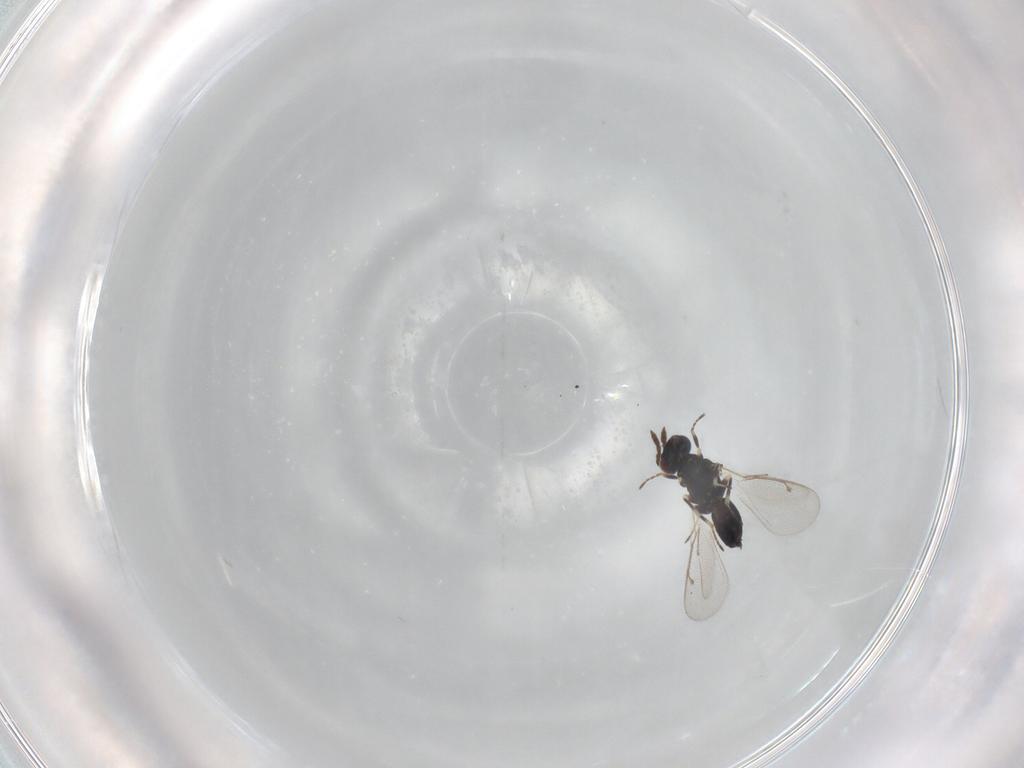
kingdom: Animalia
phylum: Arthropoda
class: Insecta
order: Hymenoptera
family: Eulophidae
